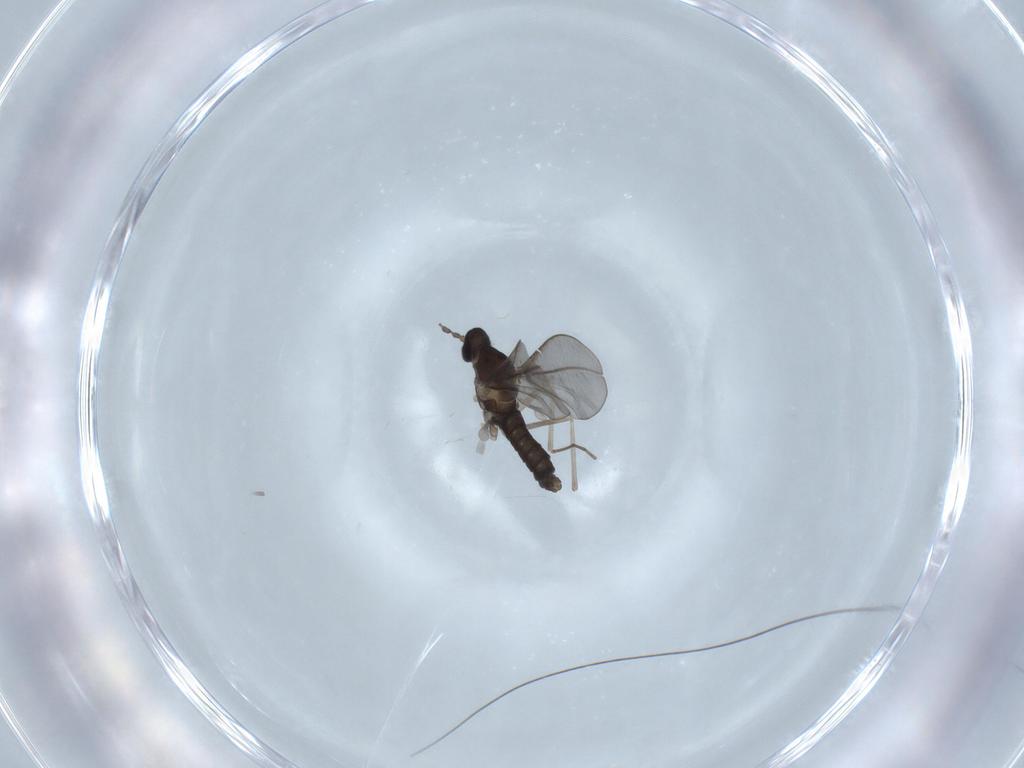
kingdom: Animalia
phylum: Arthropoda
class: Insecta
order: Diptera
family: Cecidomyiidae
